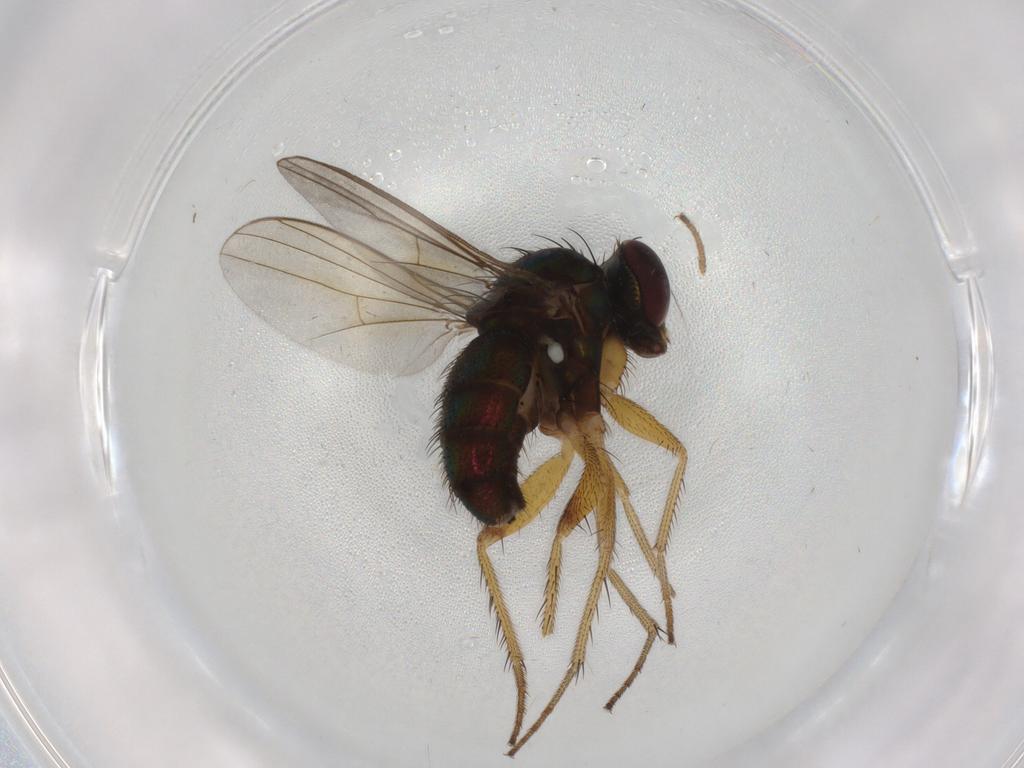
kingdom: Animalia
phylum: Arthropoda
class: Insecta
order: Diptera
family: Dolichopodidae
